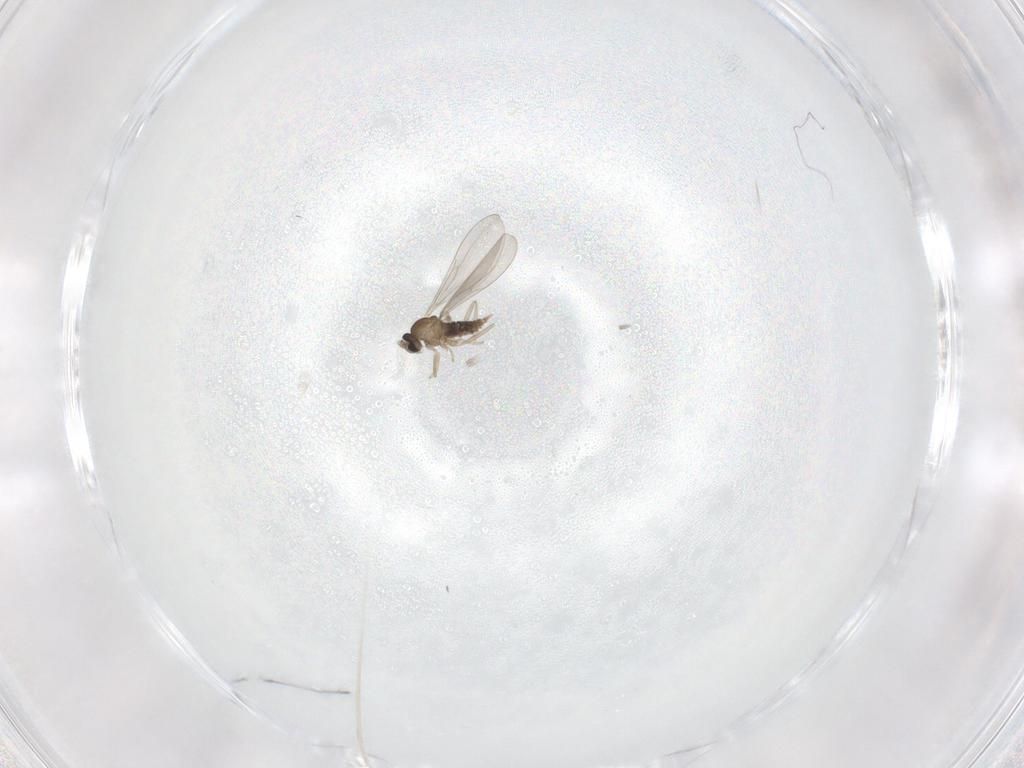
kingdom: Animalia
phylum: Arthropoda
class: Insecta
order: Diptera
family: Cecidomyiidae
